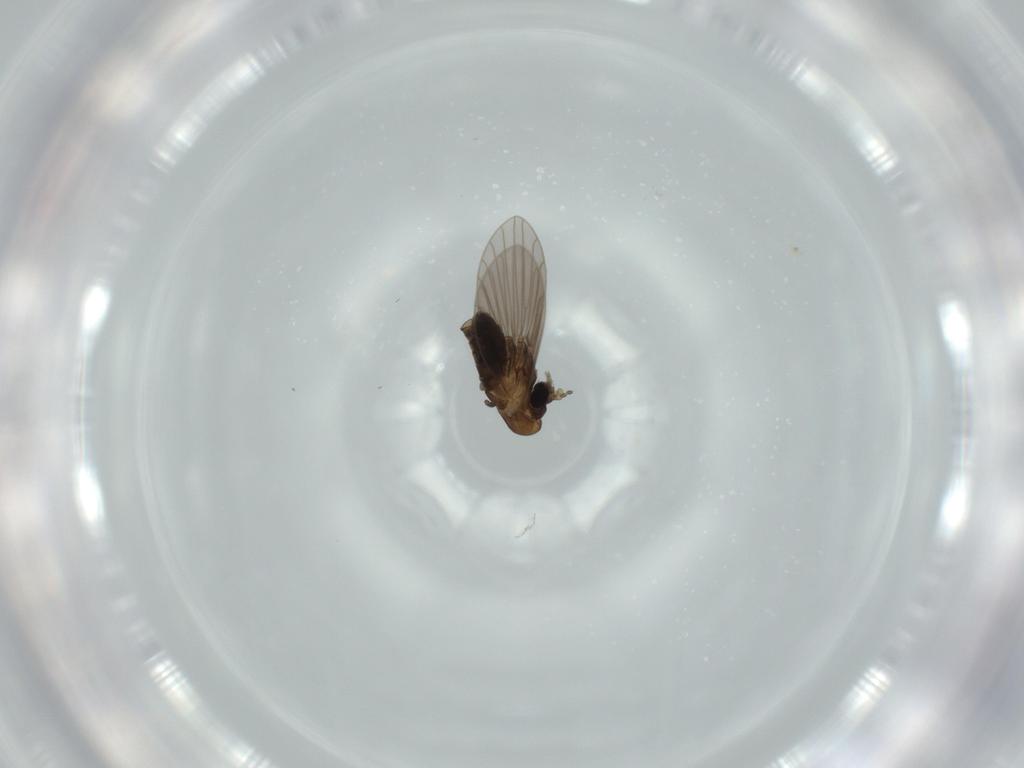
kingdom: Animalia
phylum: Arthropoda
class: Insecta
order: Diptera
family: Psychodidae
